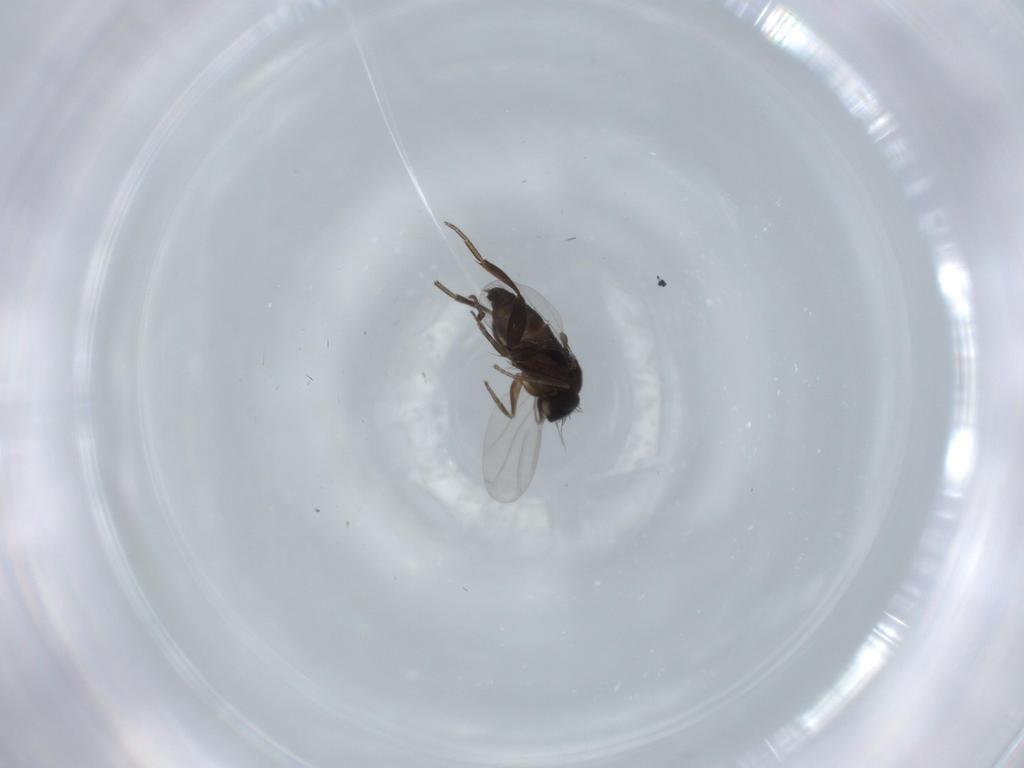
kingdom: Animalia
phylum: Arthropoda
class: Insecta
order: Diptera
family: Phoridae
